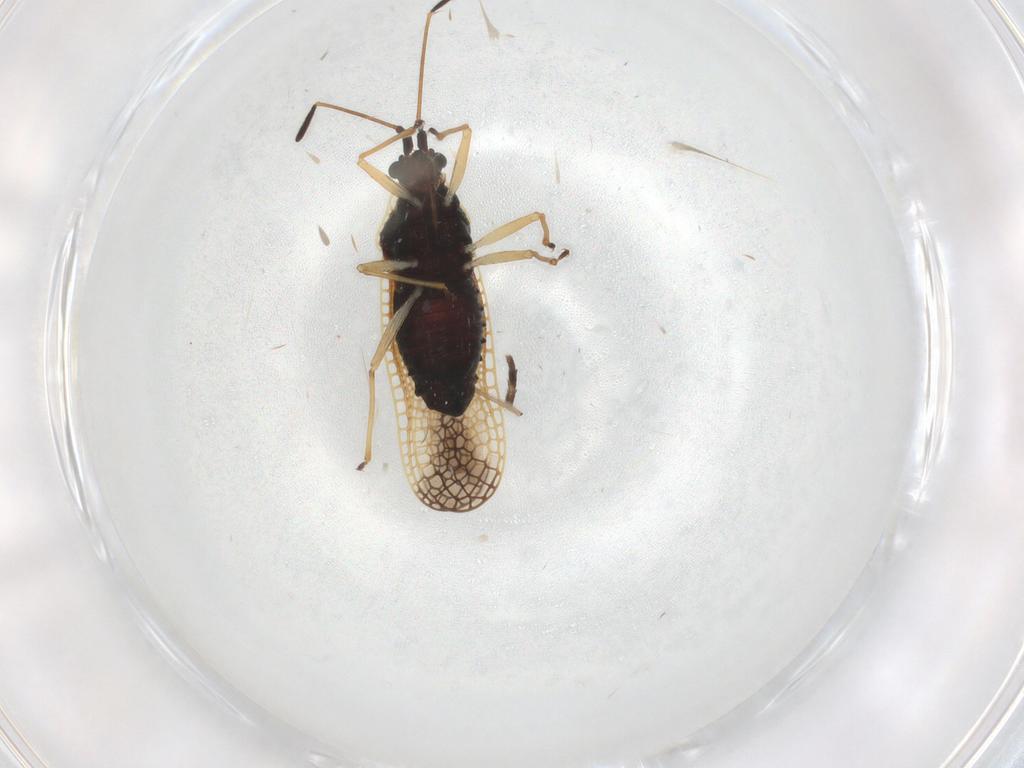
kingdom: Animalia
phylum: Arthropoda
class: Insecta
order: Hemiptera
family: Tingidae
